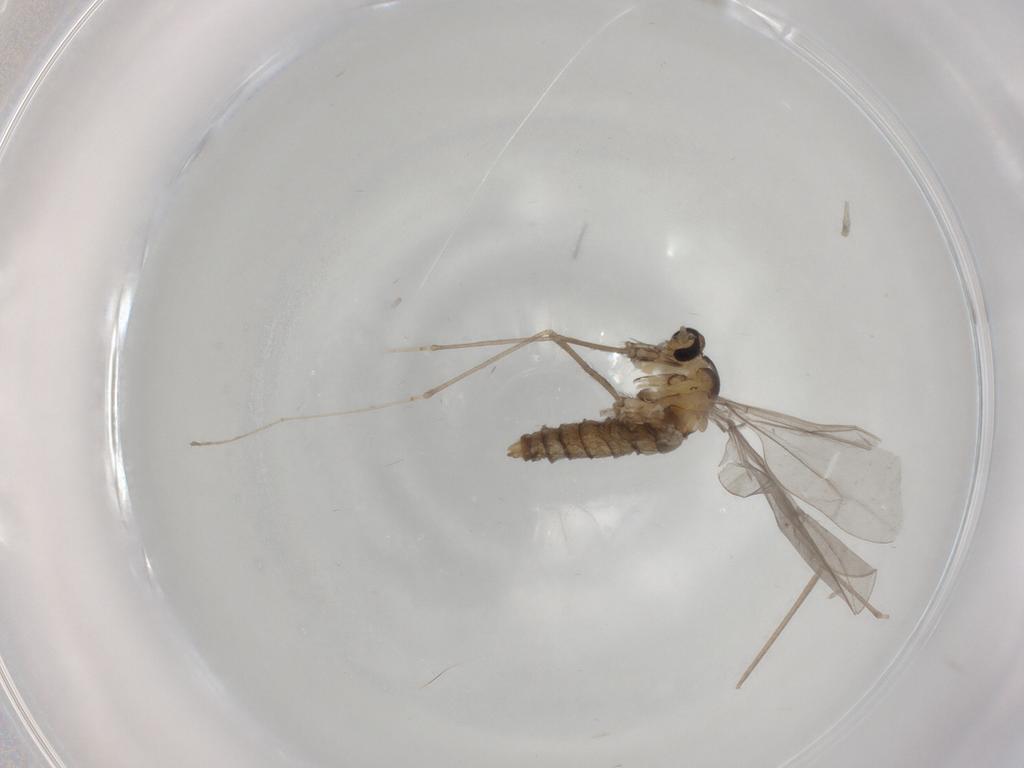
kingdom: Animalia
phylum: Arthropoda
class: Insecta
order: Diptera
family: Cecidomyiidae
